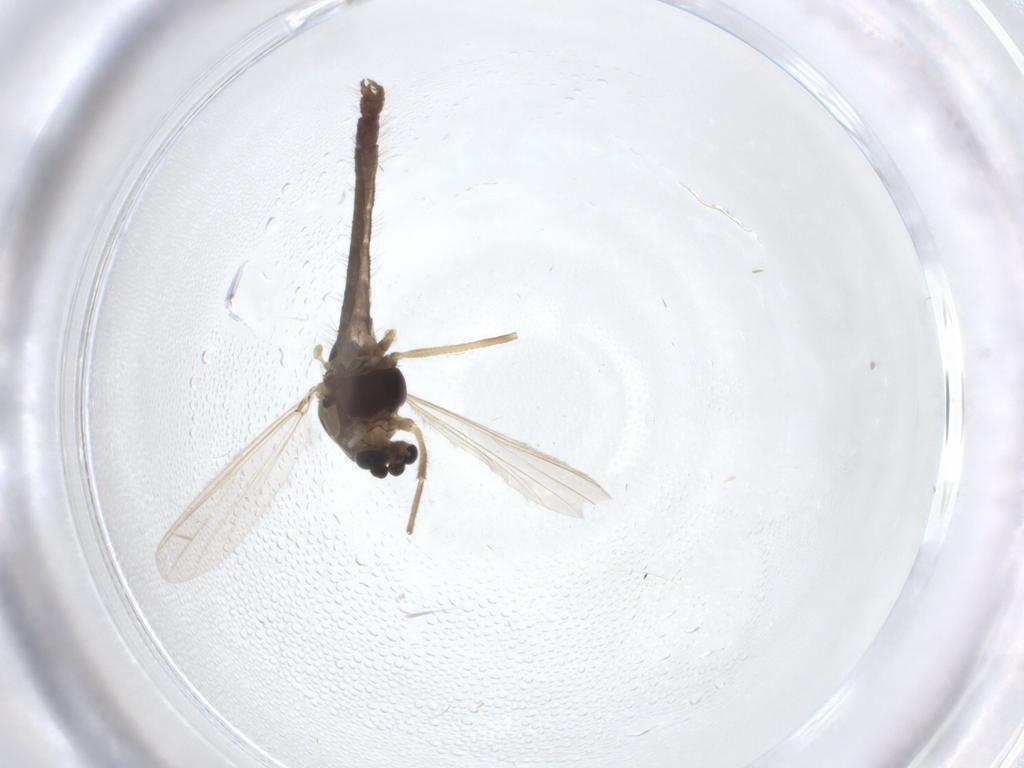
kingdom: Animalia
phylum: Arthropoda
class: Insecta
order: Diptera
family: Chironomidae
